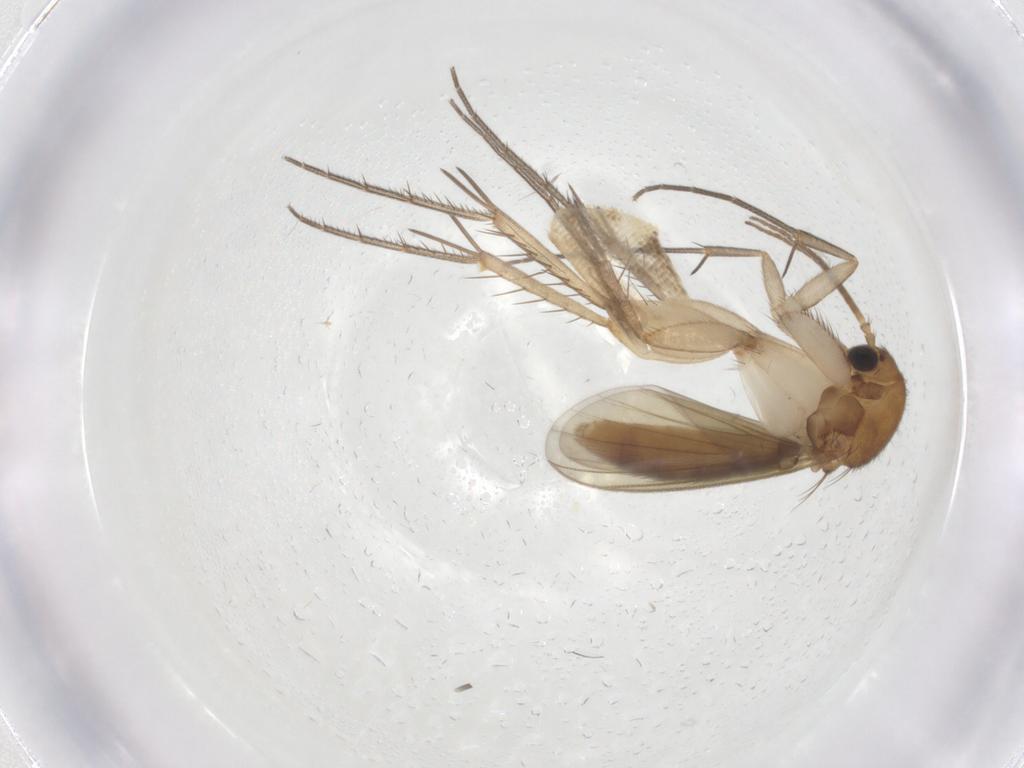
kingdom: Animalia
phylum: Arthropoda
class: Insecta
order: Diptera
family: Mycetophilidae
